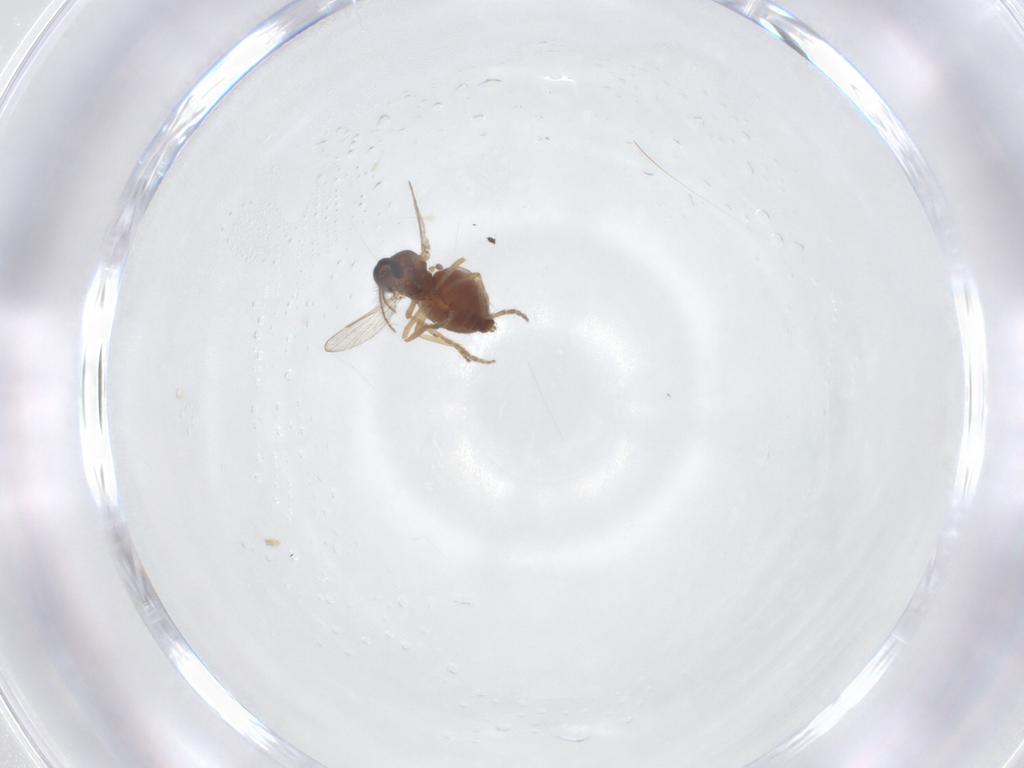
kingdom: Animalia
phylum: Arthropoda
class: Insecta
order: Diptera
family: Ceratopogonidae
